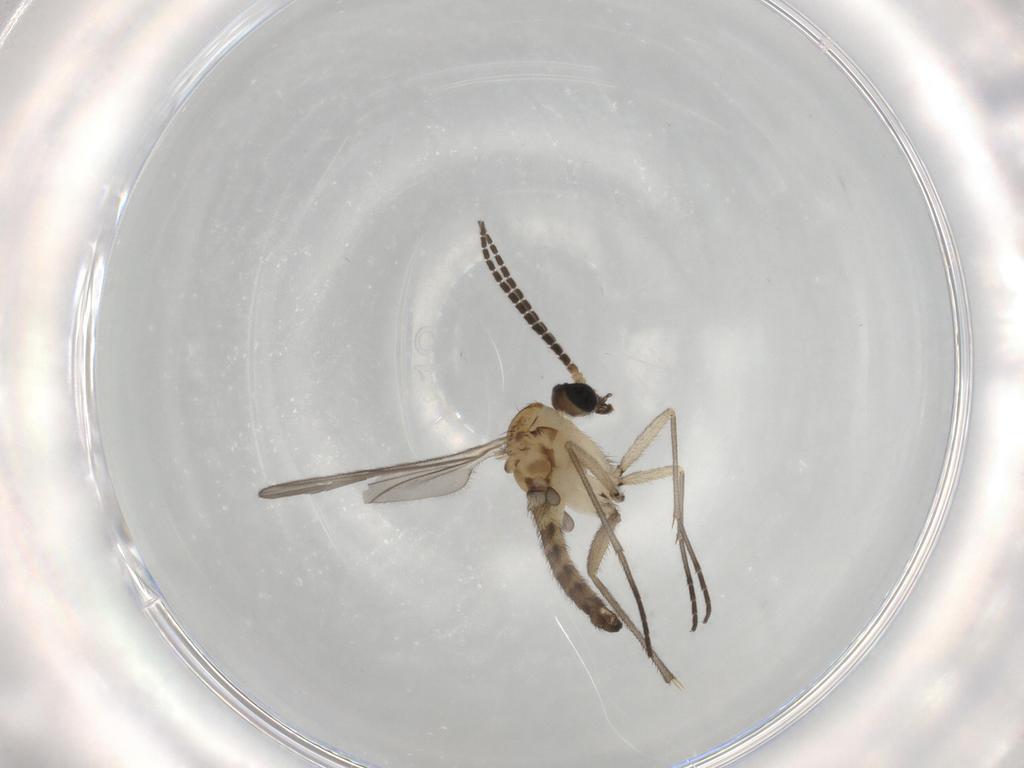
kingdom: Animalia
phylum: Arthropoda
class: Insecta
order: Diptera
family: Sciaridae
